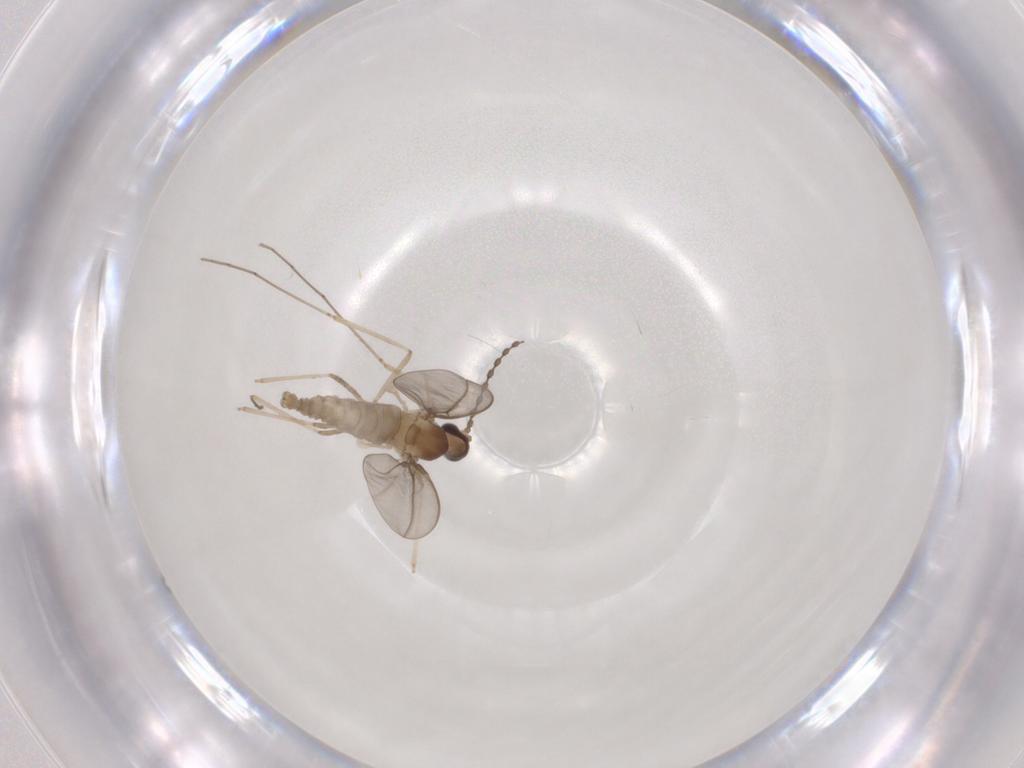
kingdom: Animalia
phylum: Arthropoda
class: Insecta
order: Diptera
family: Cecidomyiidae
